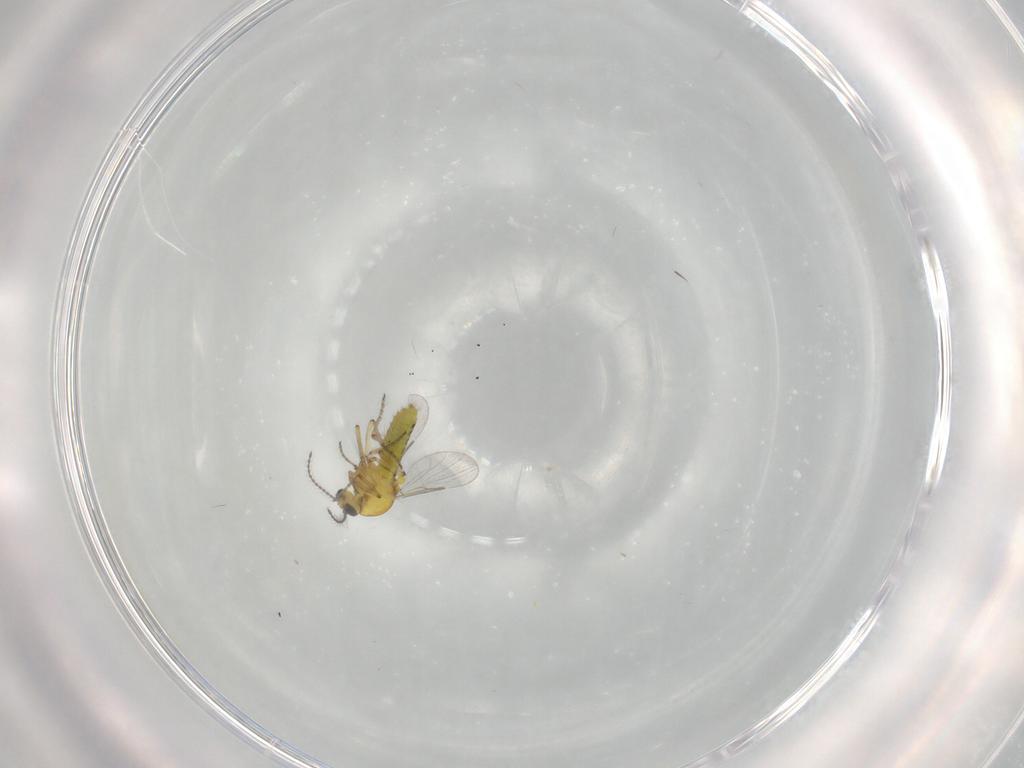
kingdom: Animalia
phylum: Arthropoda
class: Insecta
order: Diptera
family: Ceratopogonidae
